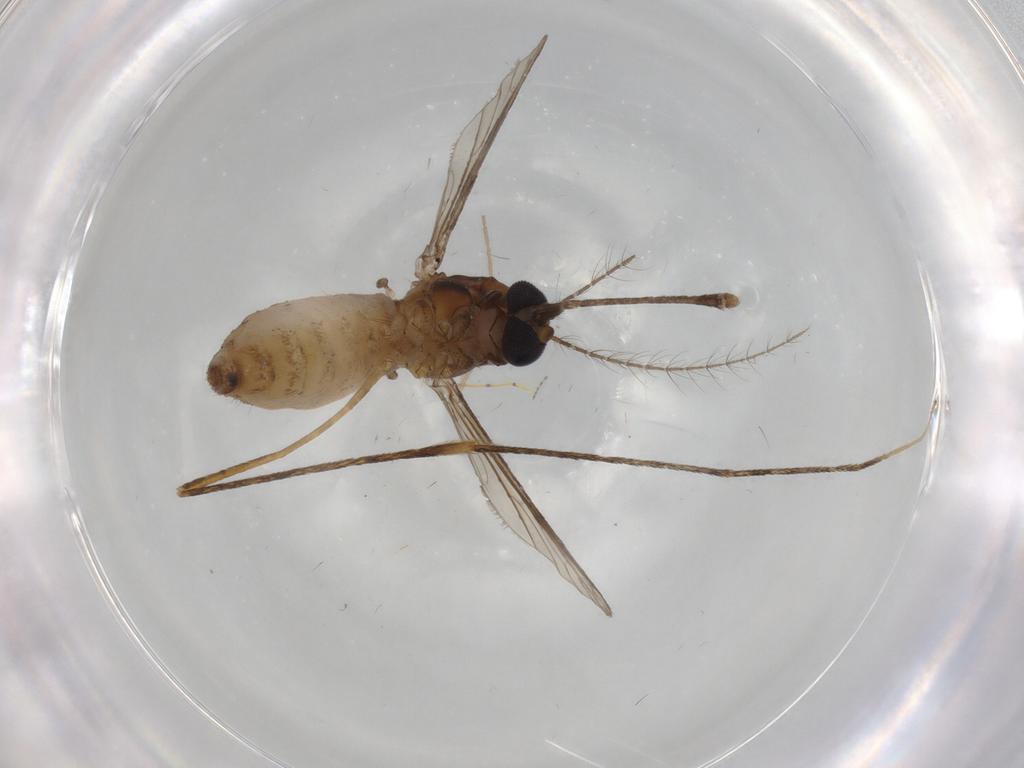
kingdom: Animalia
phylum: Arthropoda
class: Insecta
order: Diptera
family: Culicidae
